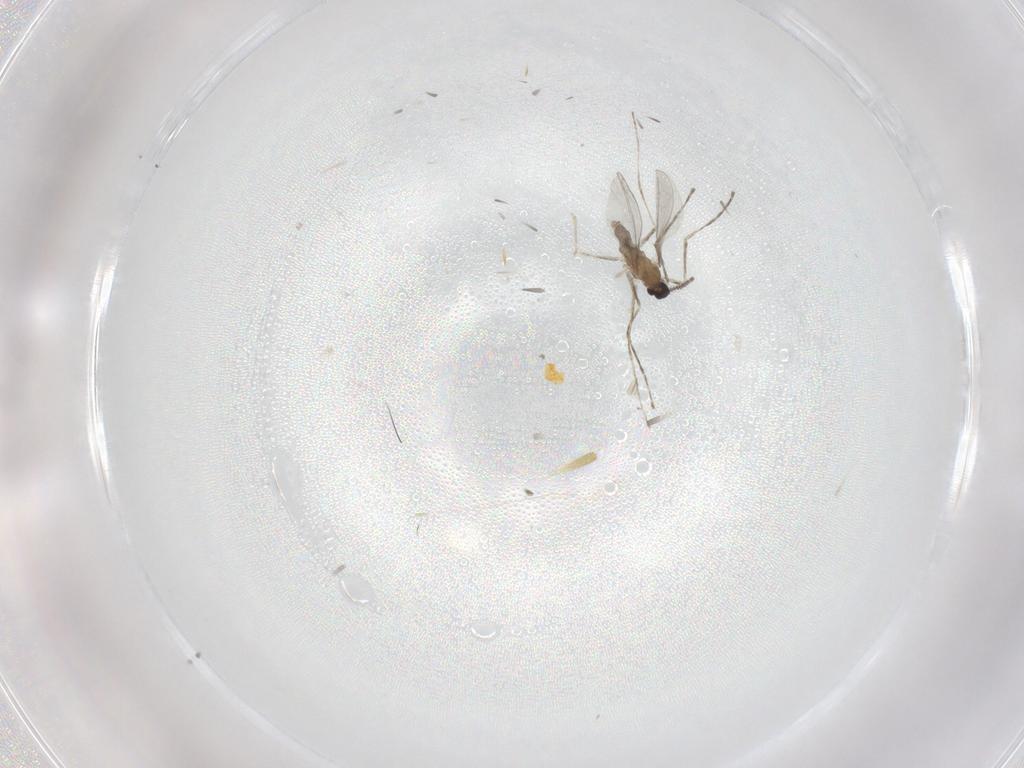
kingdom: Animalia
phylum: Arthropoda
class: Insecta
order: Diptera
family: Cecidomyiidae
